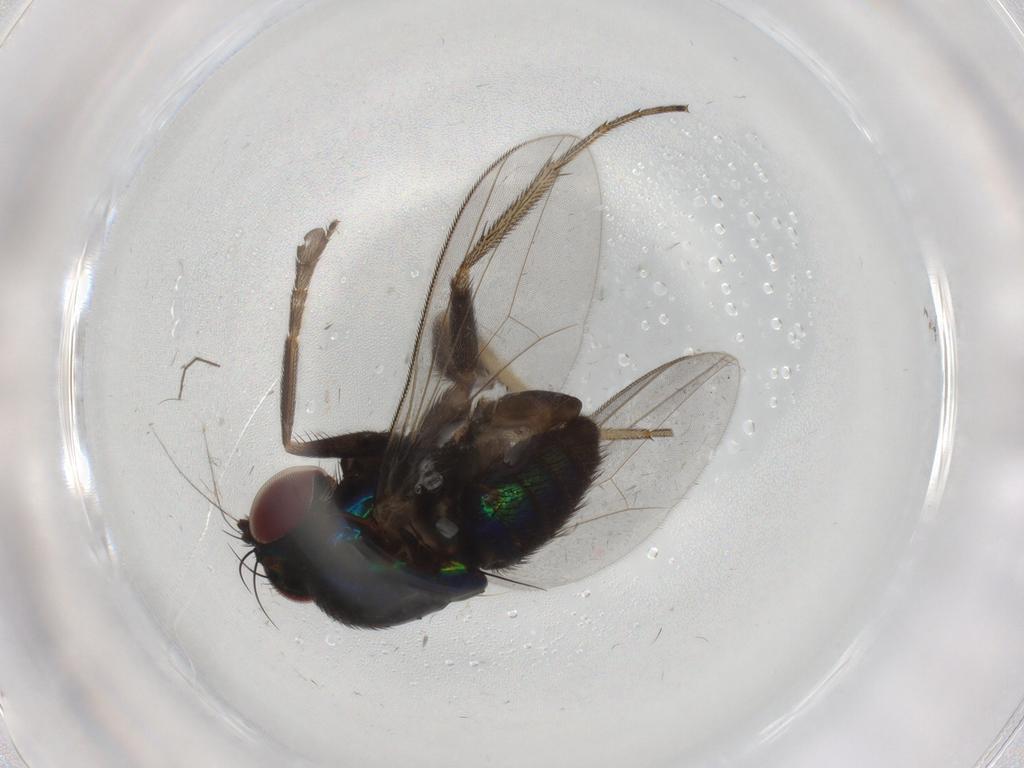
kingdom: Animalia
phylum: Arthropoda
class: Insecta
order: Diptera
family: Dolichopodidae
